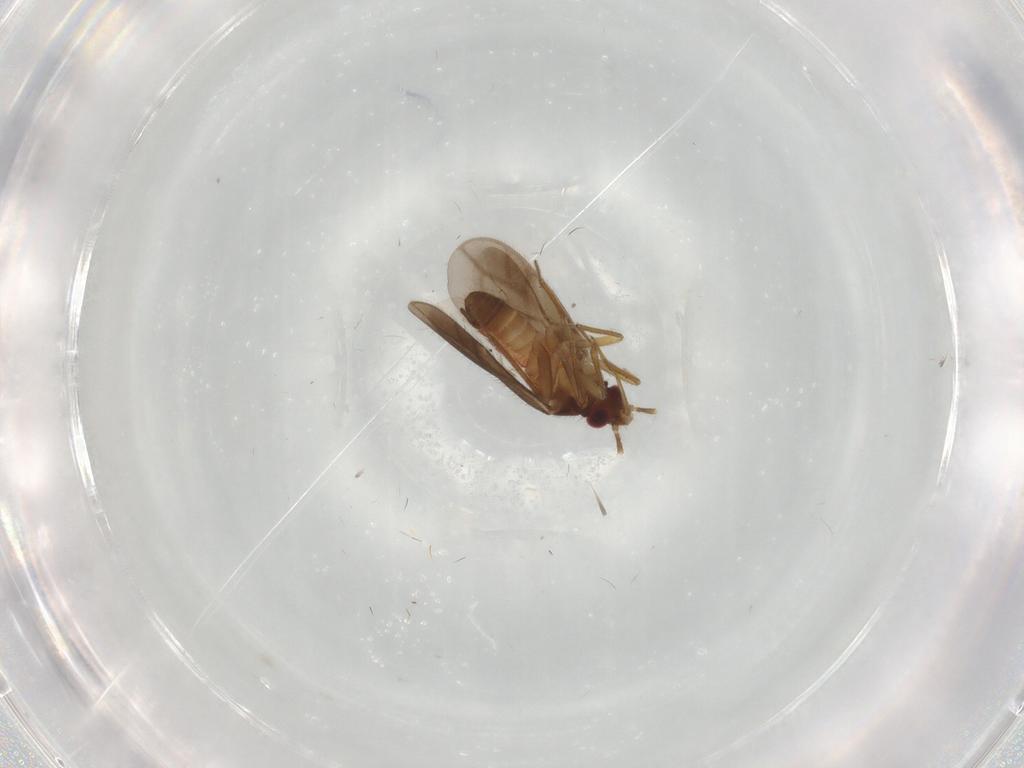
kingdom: Animalia
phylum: Arthropoda
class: Insecta
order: Hemiptera
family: Ceratocombidae
